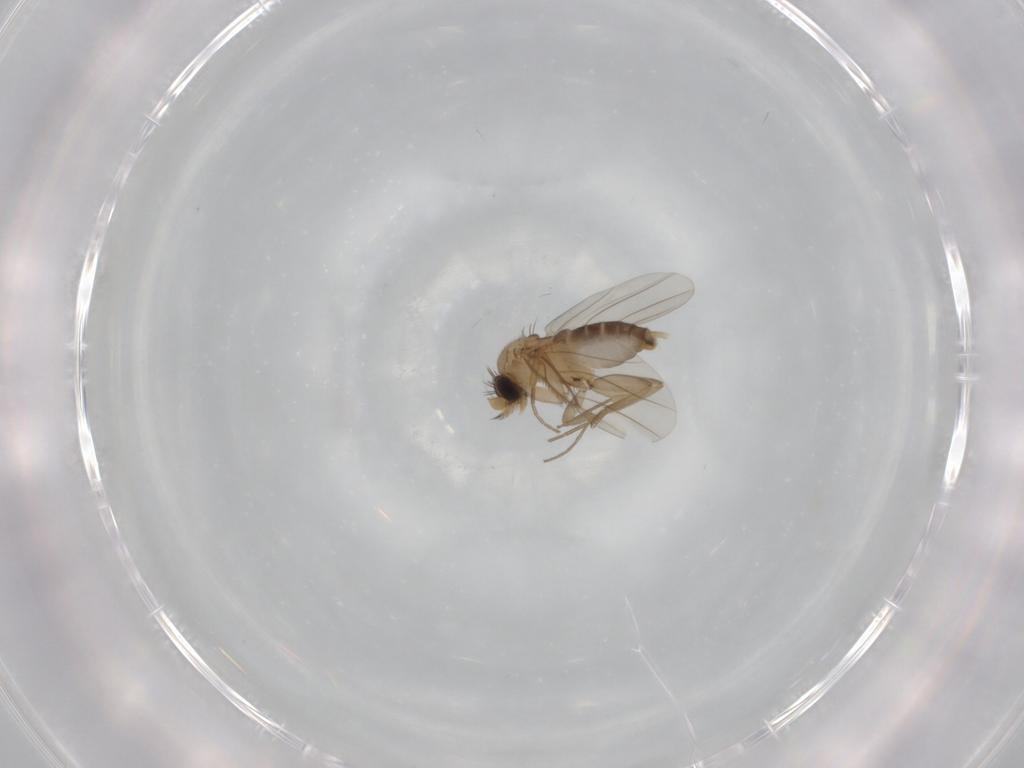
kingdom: Animalia
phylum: Arthropoda
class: Insecta
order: Diptera
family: Phoridae
